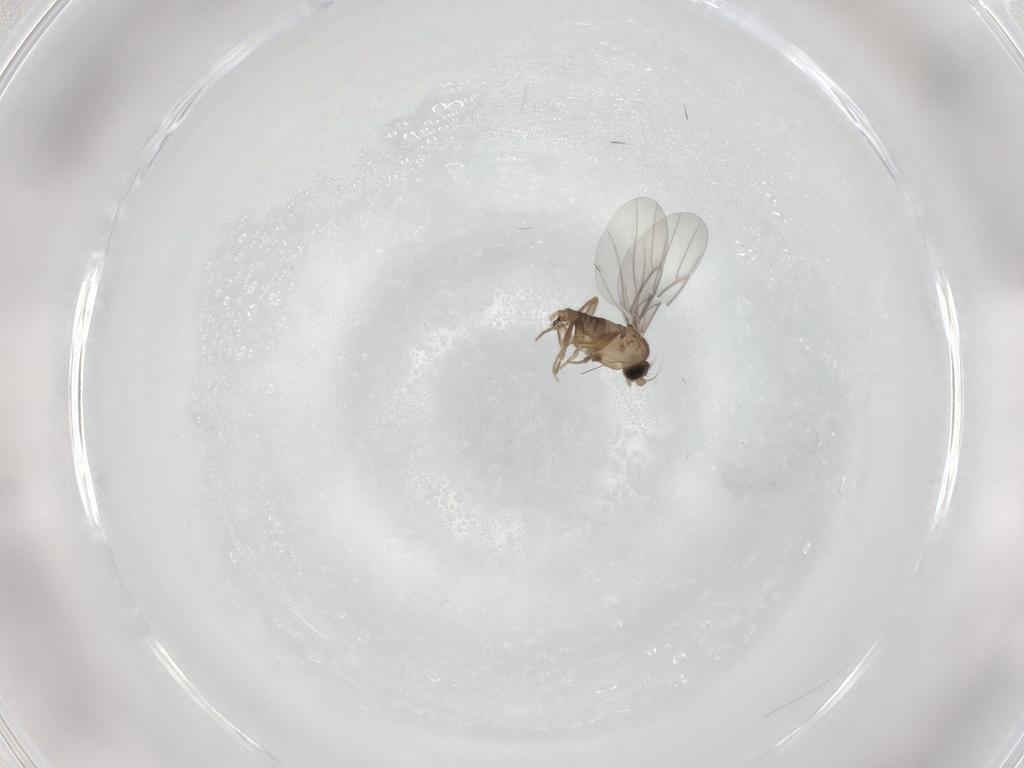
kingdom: Animalia
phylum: Arthropoda
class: Insecta
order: Diptera
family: Cecidomyiidae
